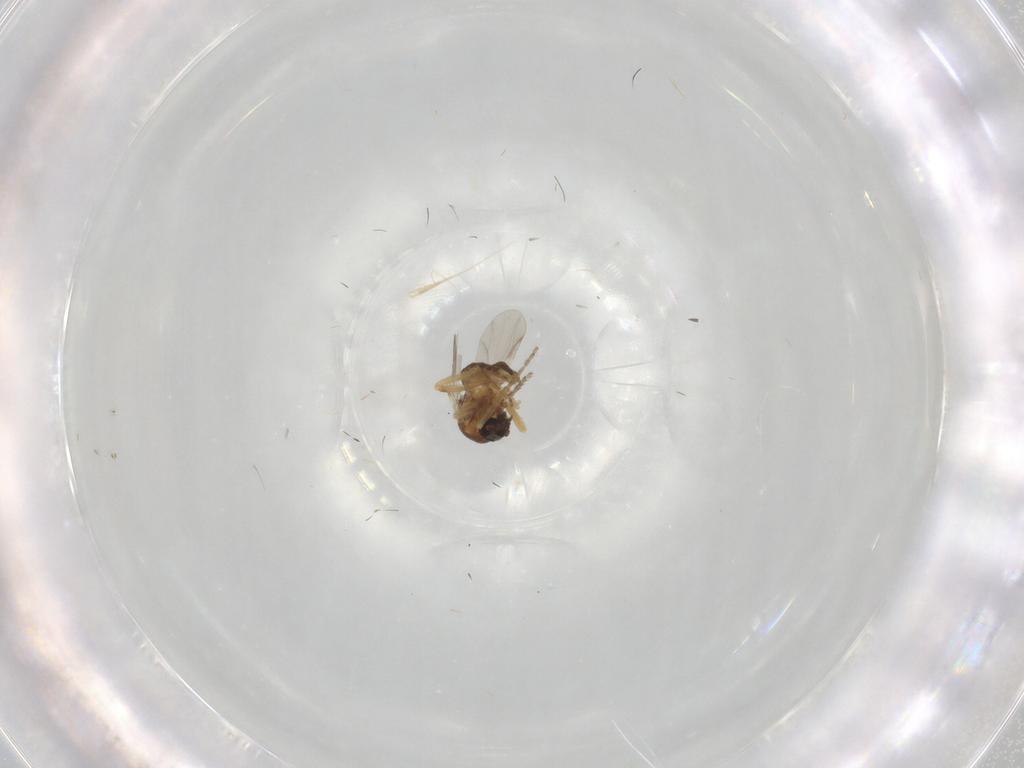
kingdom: Animalia
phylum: Arthropoda
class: Insecta
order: Diptera
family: Ceratopogonidae
